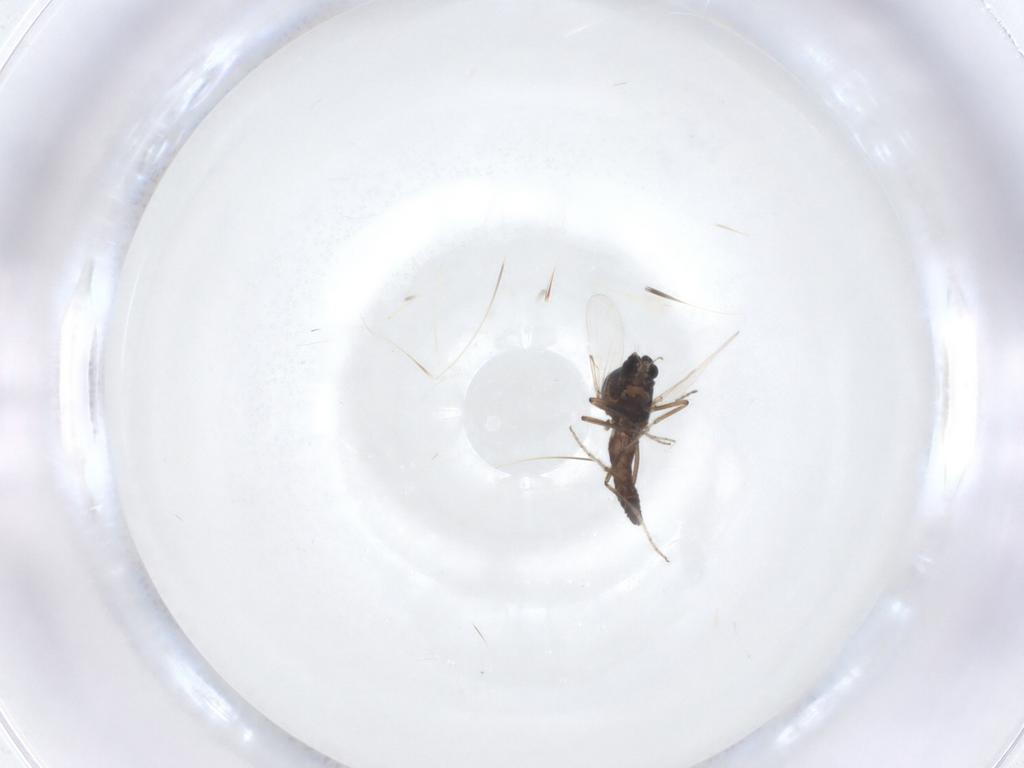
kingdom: Animalia
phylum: Arthropoda
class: Insecta
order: Diptera
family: Ceratopogonidae
